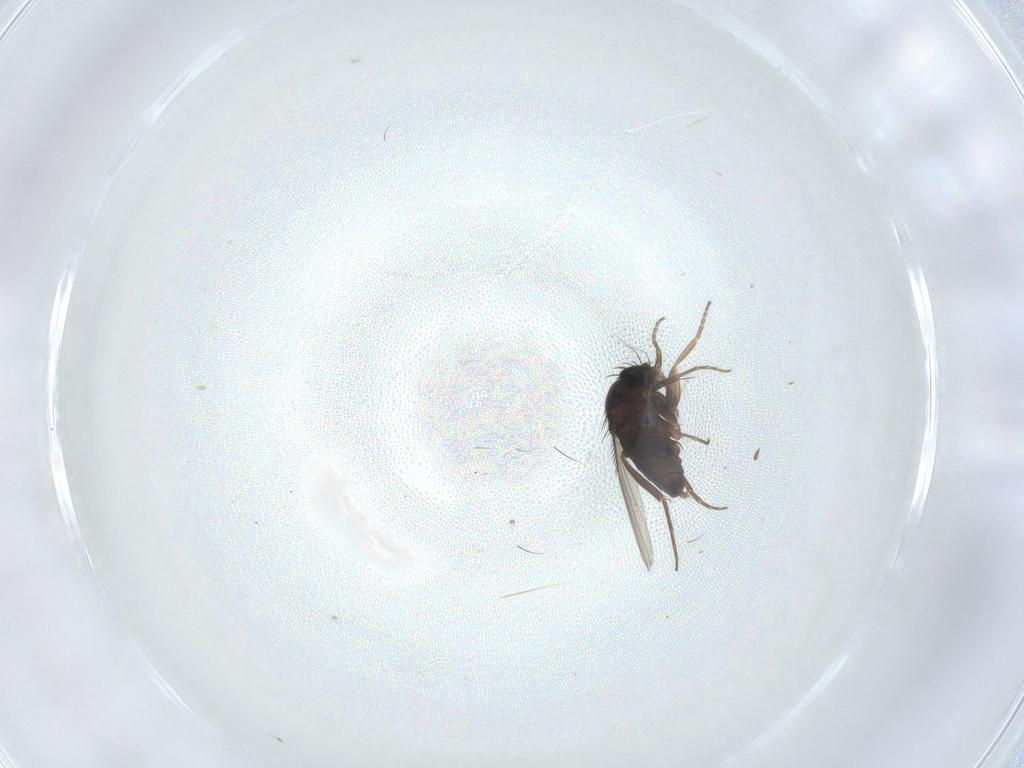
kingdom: Animalia
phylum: Arthropoda
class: Insecta
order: Diptera
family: Phoridae
